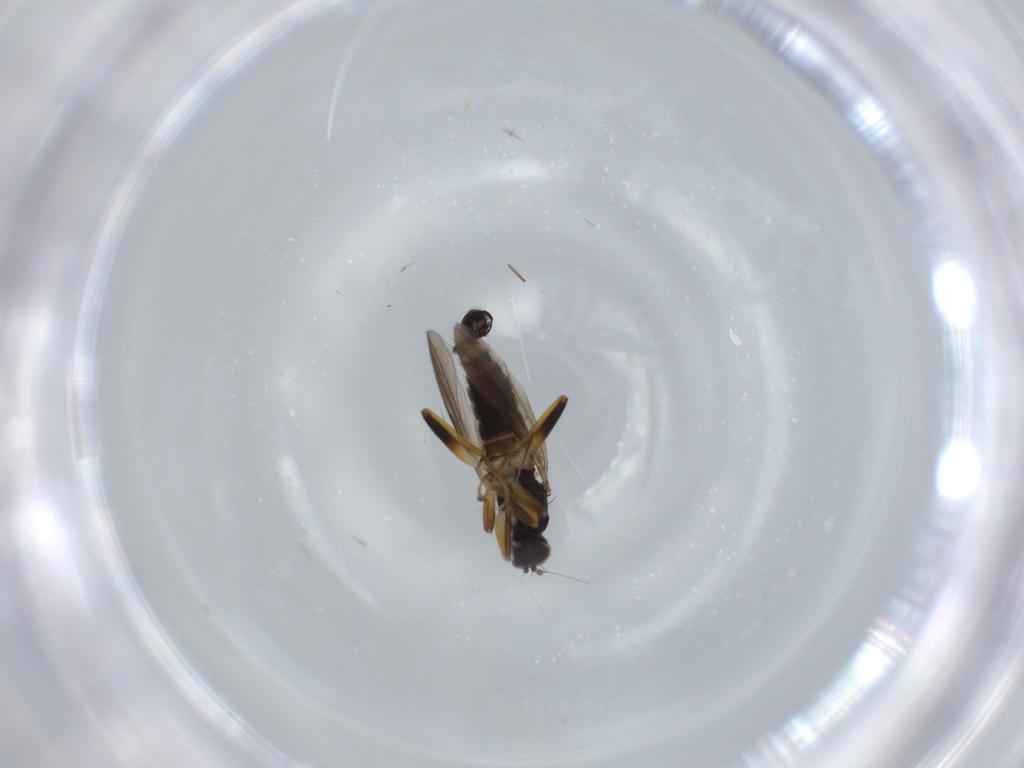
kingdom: Animalia
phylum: Arthropoda
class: Insecta
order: Diptera
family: Hybotidae
